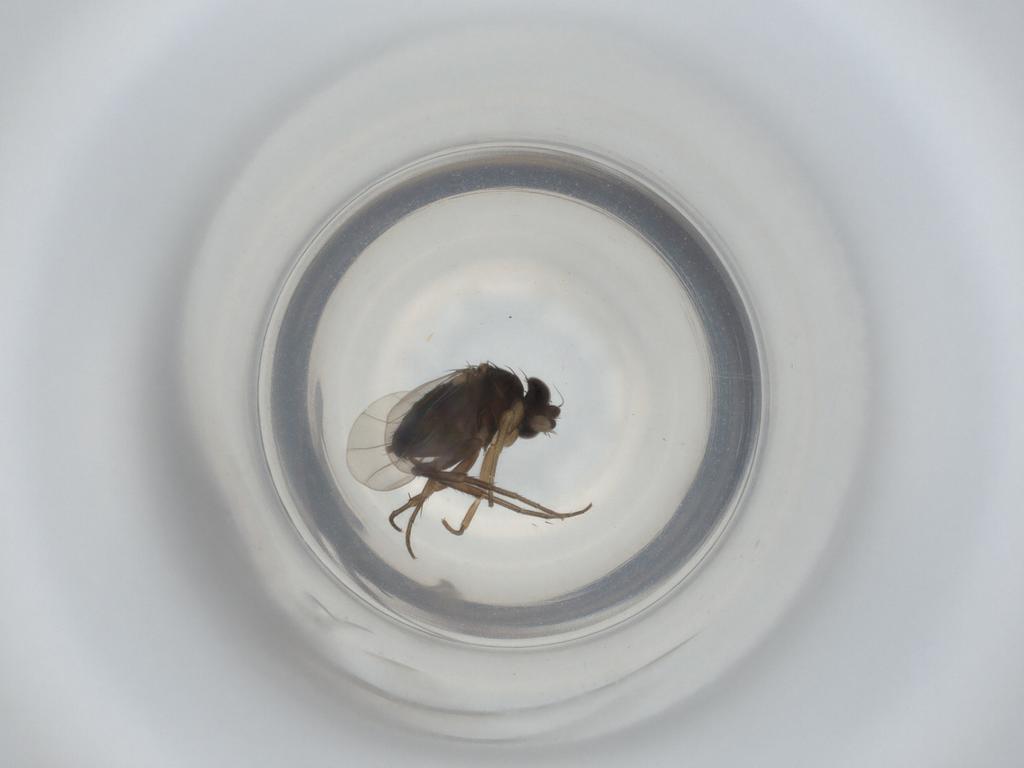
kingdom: Animalia
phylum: Arthropoda
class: Insecta
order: Diptera
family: Phoridae
